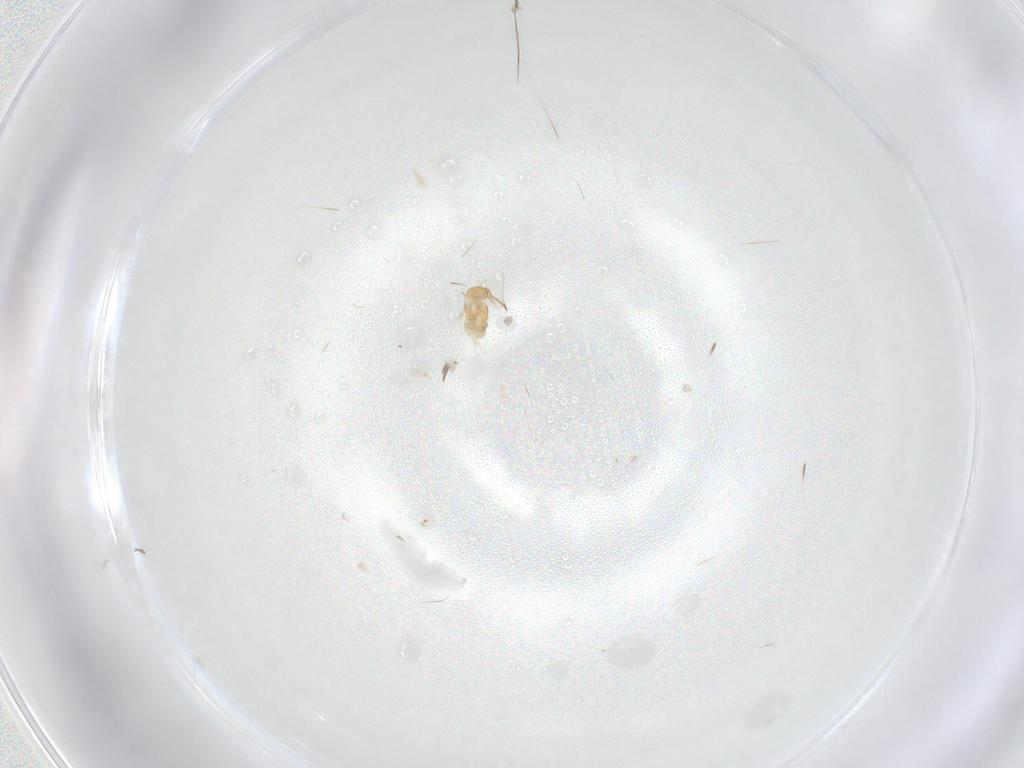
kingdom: Animalia
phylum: Arthropoda
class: Collembola
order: Symphypleona
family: Bourletiellidae
